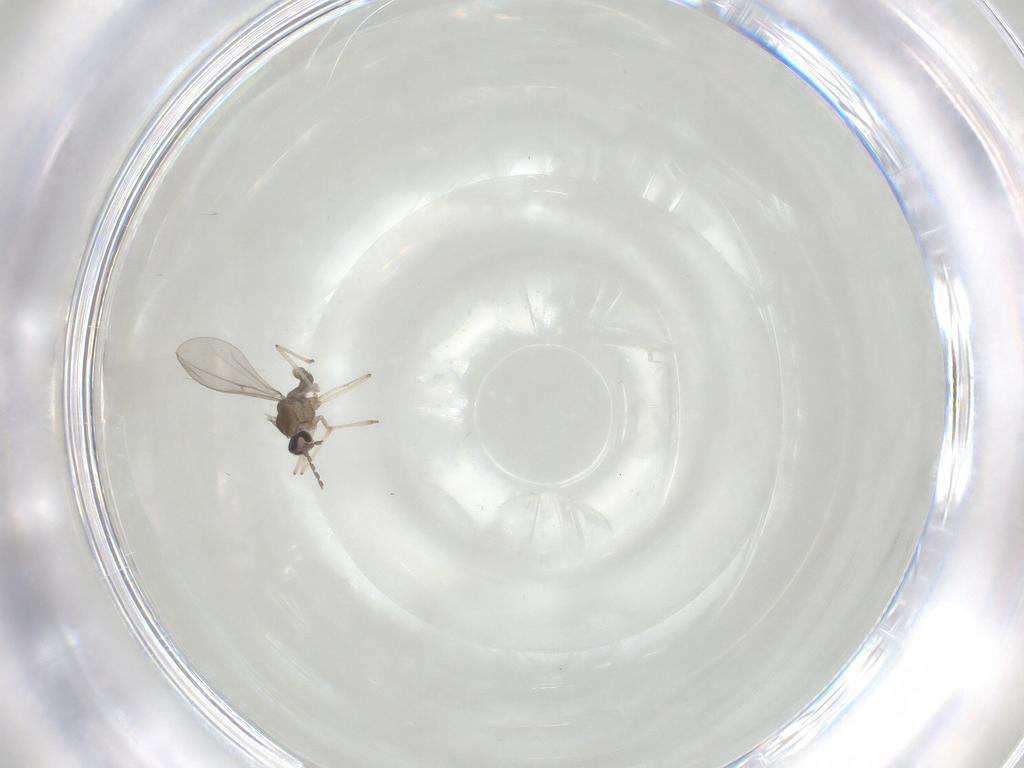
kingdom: Animalia
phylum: Arthropoda
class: Insecta
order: Diptera
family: Cecidomyiidae
